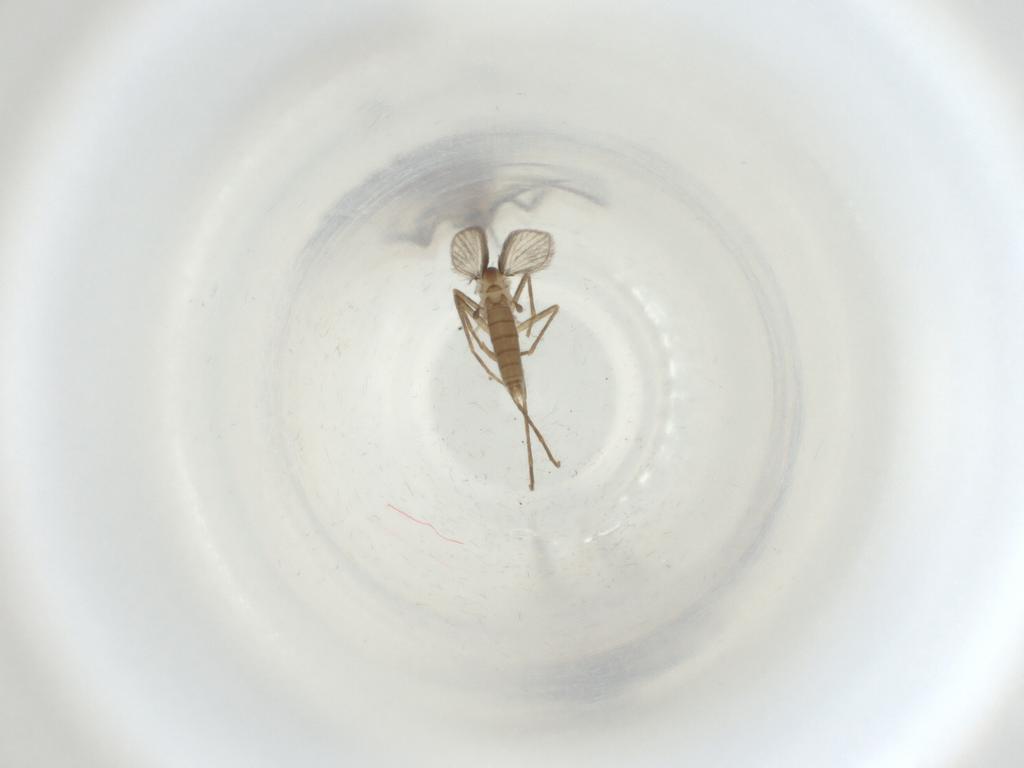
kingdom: Animalia
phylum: Arthropoda
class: Insecta
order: Diptera
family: Psychodidae
